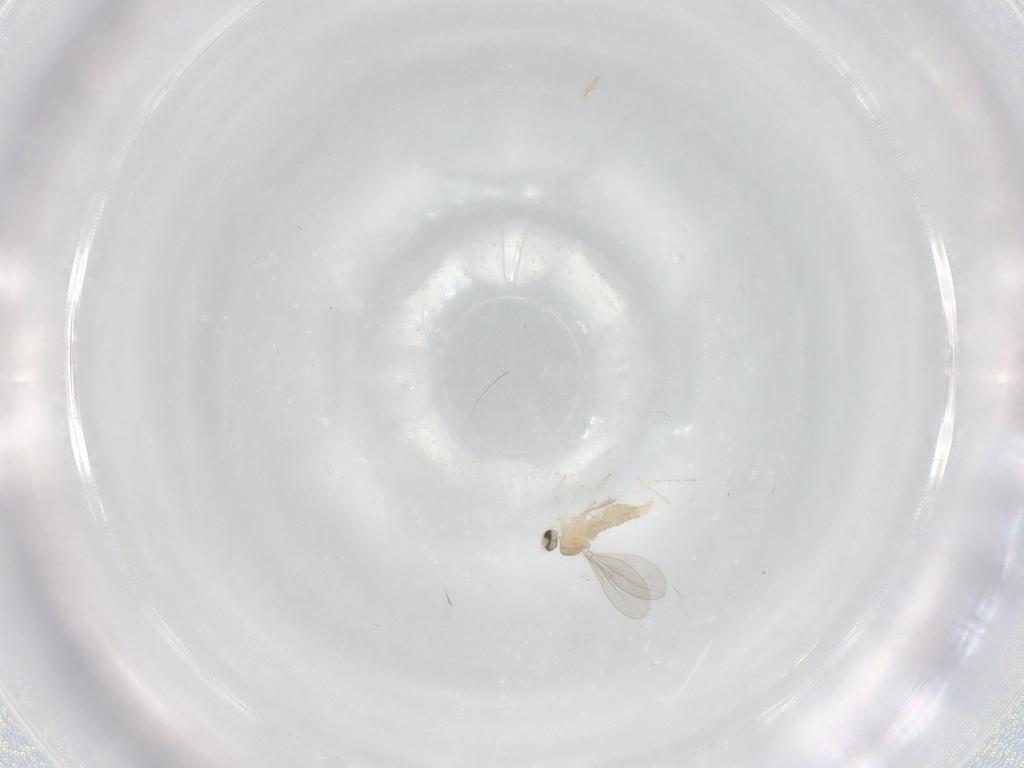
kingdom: Animalia
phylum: Arthropoda
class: Insecta
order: Diptera
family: Cecidomyiidae
